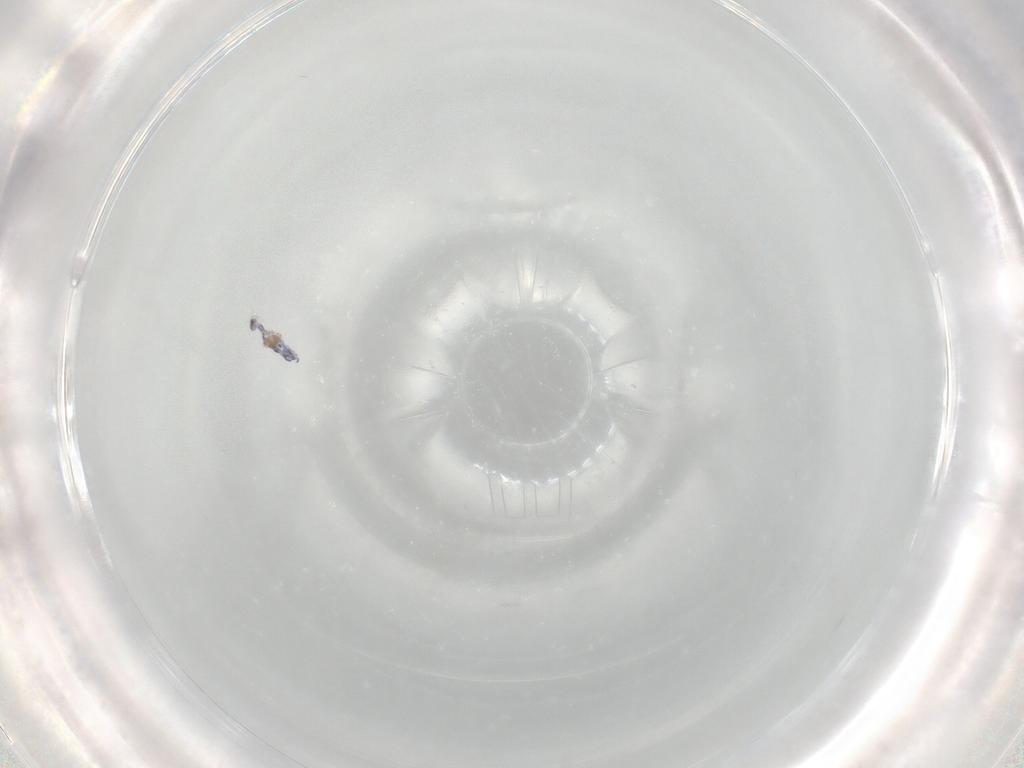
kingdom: Animalia
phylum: Arthropoda
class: Collembola
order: Entomobryomorpha
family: Entomobryidae
